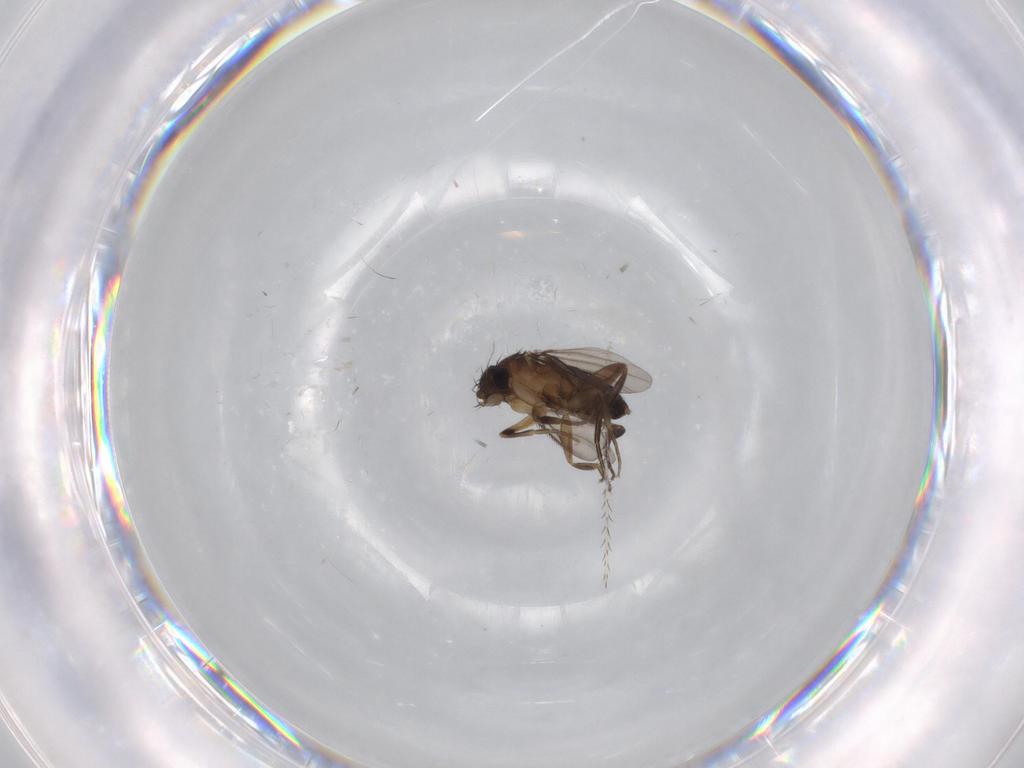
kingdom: Animalia
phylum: Arthropoda
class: Insecta
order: Diptera
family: Phoridae
